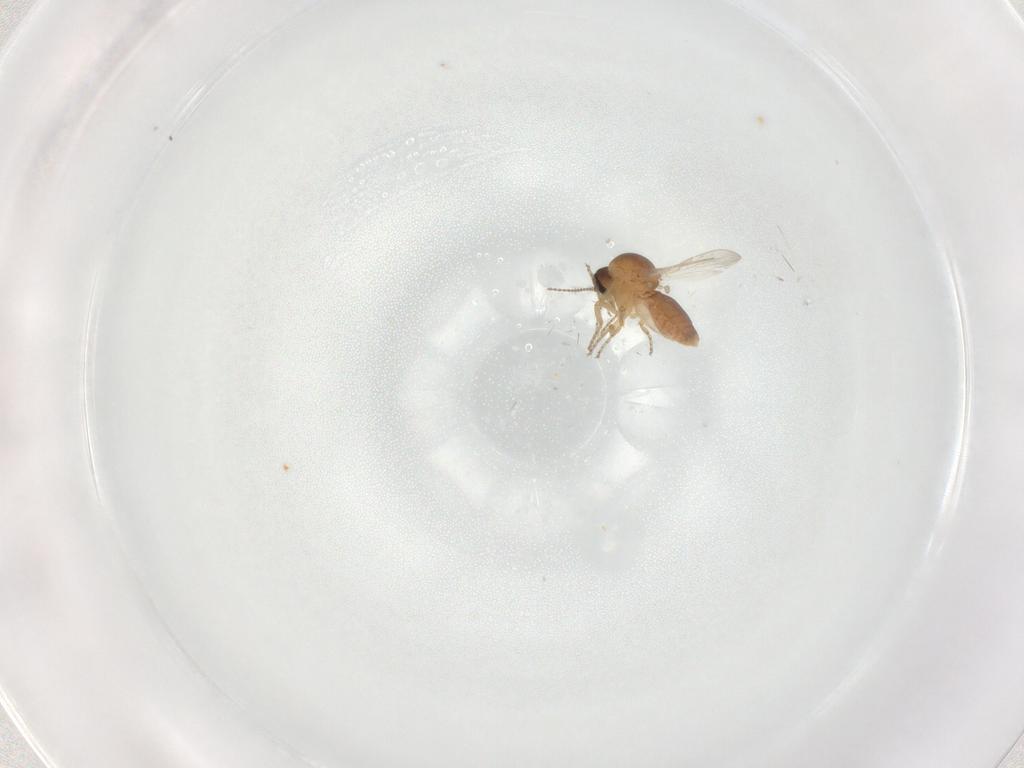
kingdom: Animalia
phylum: Arthropoda
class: Insecta
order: Diptera
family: Ceratopogonidae
